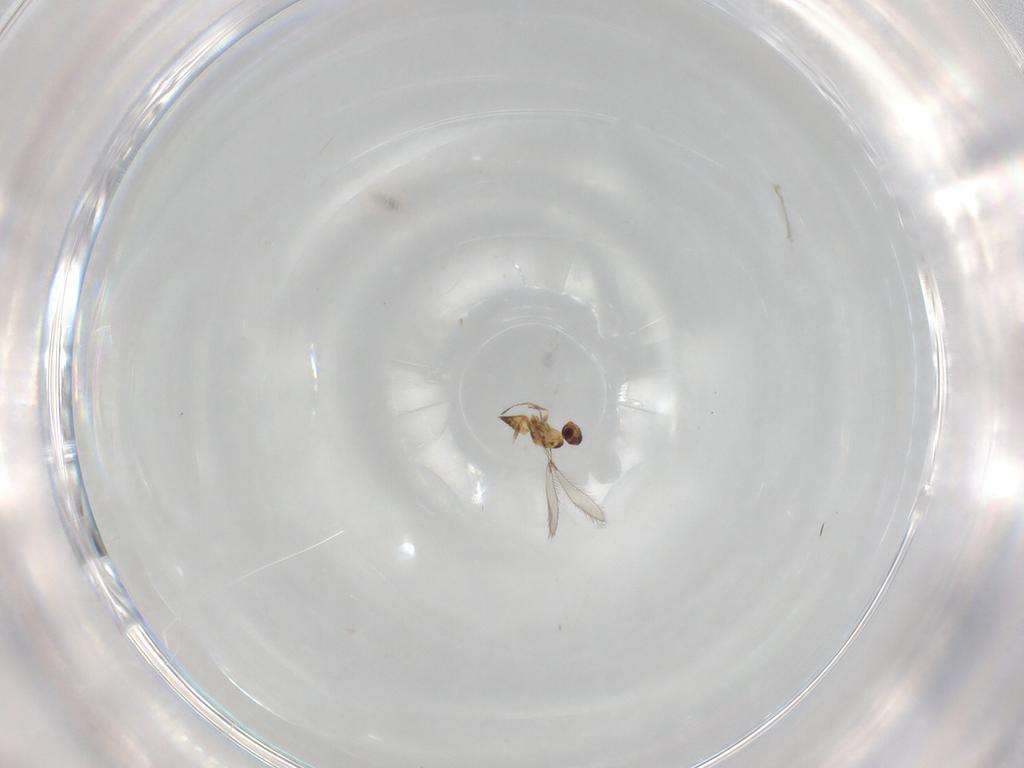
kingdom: Animalia
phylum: Arthropoda
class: Insecta
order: Hymenoptera
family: Mymaridae
